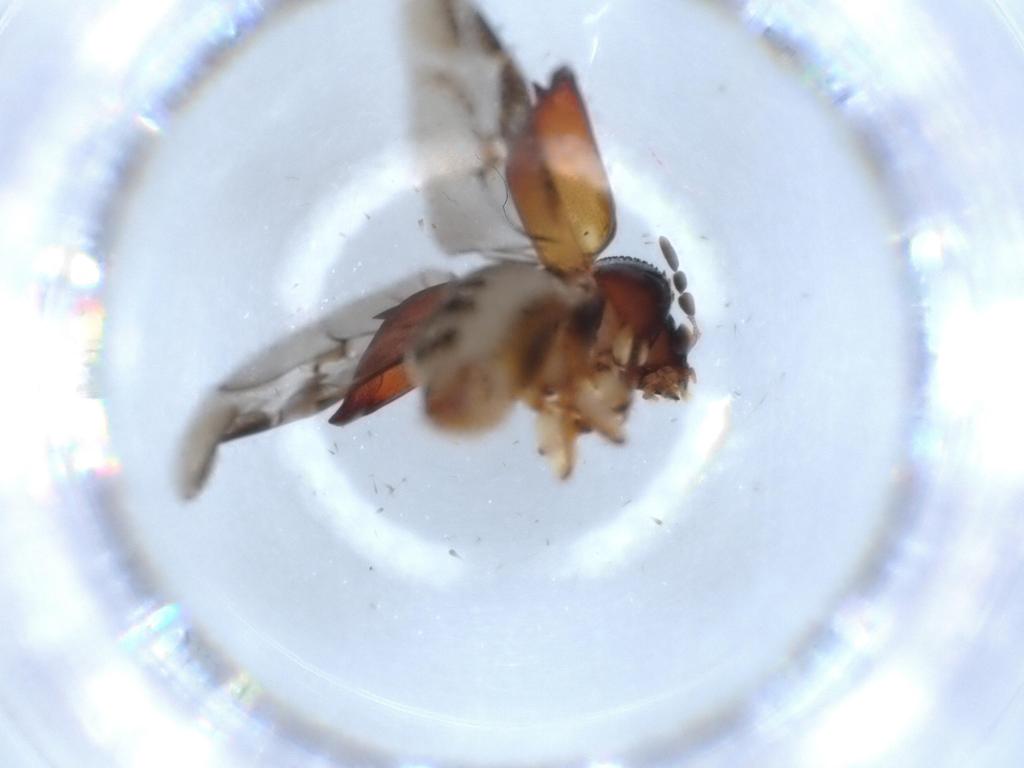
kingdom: Animalia
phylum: Arthropoda
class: Insecta
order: Coleoptera
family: Bostrichidae
